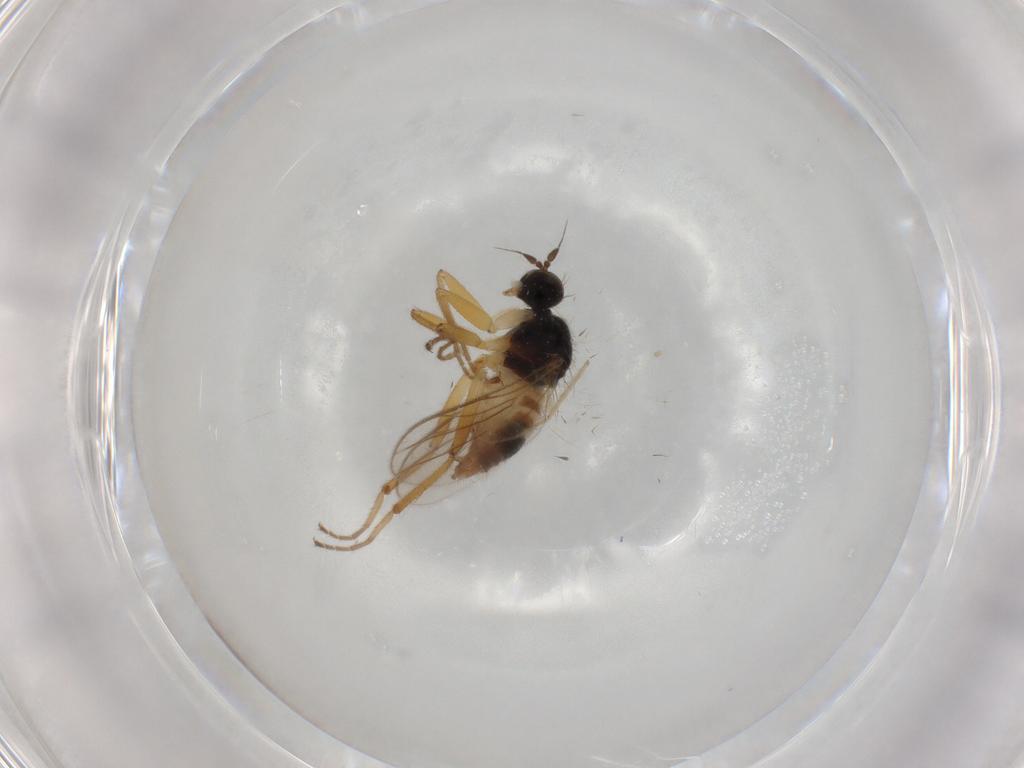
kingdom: Animalia
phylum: Arthropoda
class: Insecta
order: Diptera
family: Hybotidae
